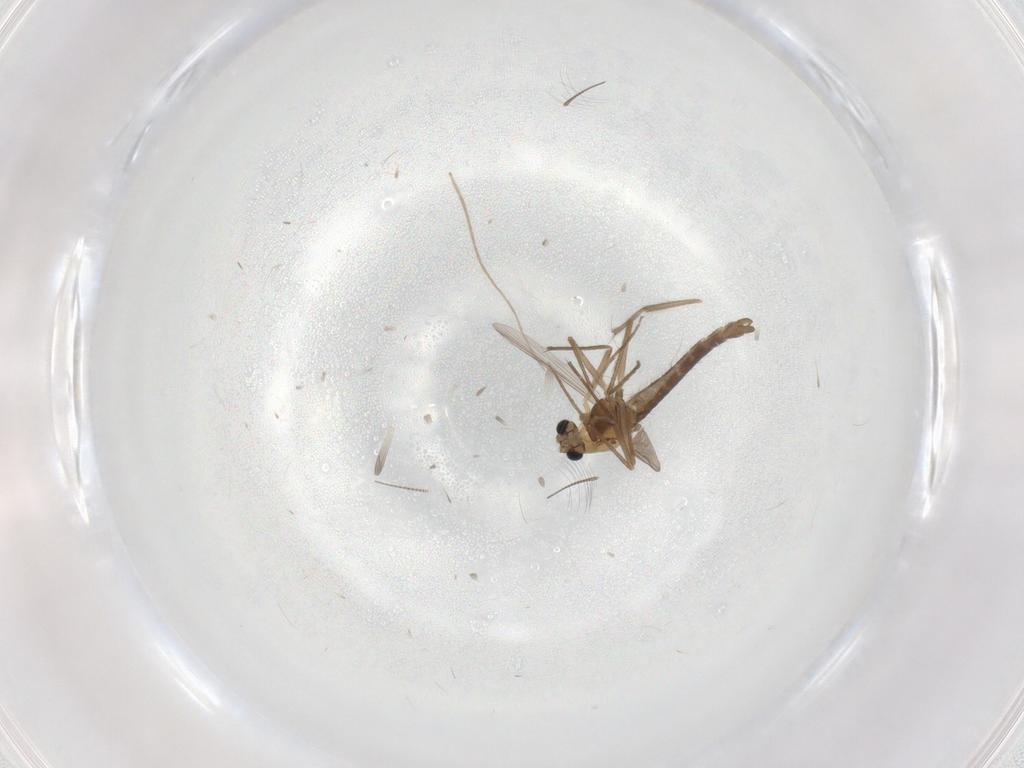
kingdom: Animalia
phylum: Arthropoda
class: Insecta
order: Diptera
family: Chironomidae
